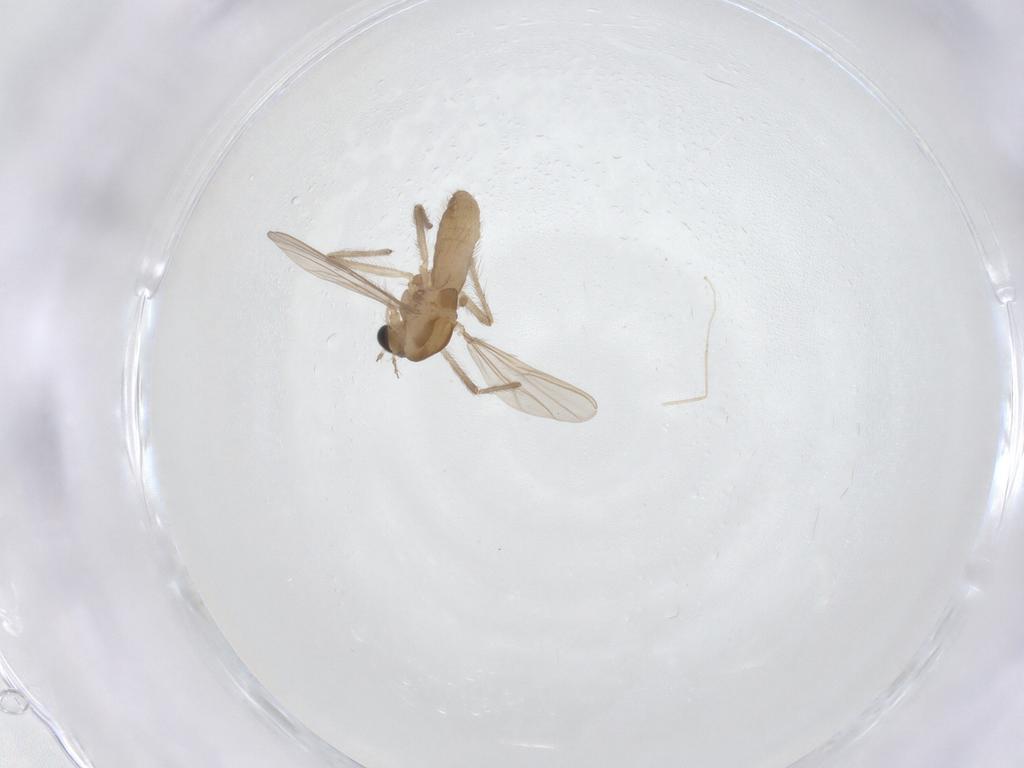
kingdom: Animalia
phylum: Arthropoda
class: Insecta
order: Diptera
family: Chironomidae
